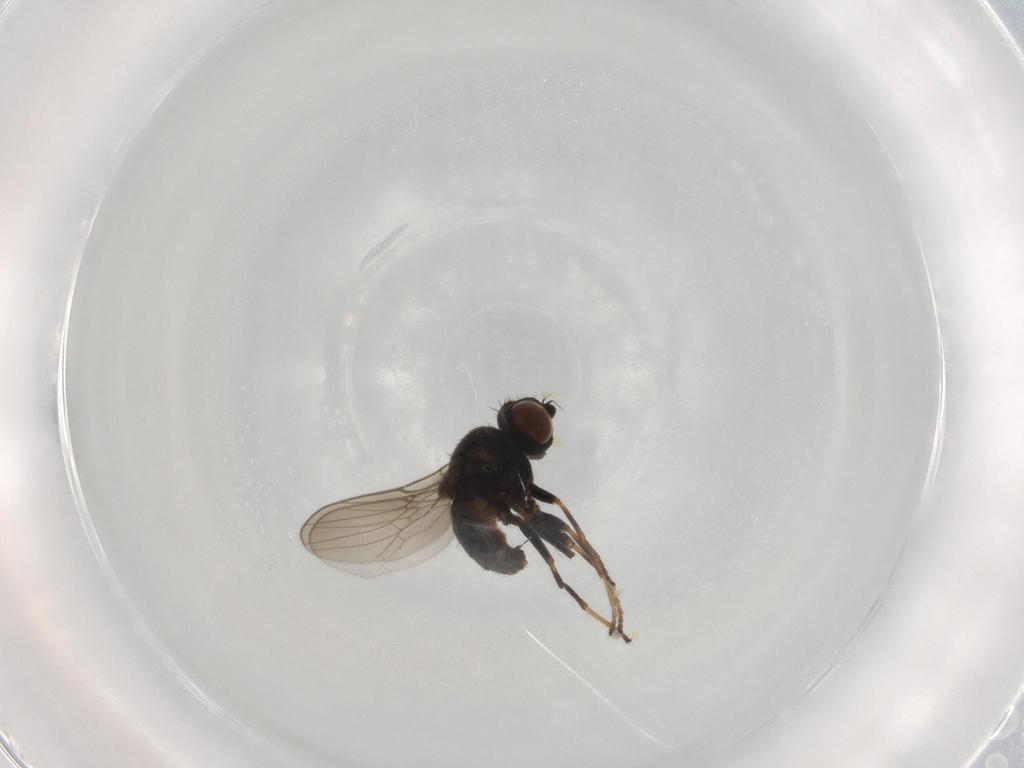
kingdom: Animalia
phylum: Arthropoda
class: Insecta
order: Diptera
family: Chloropidae
